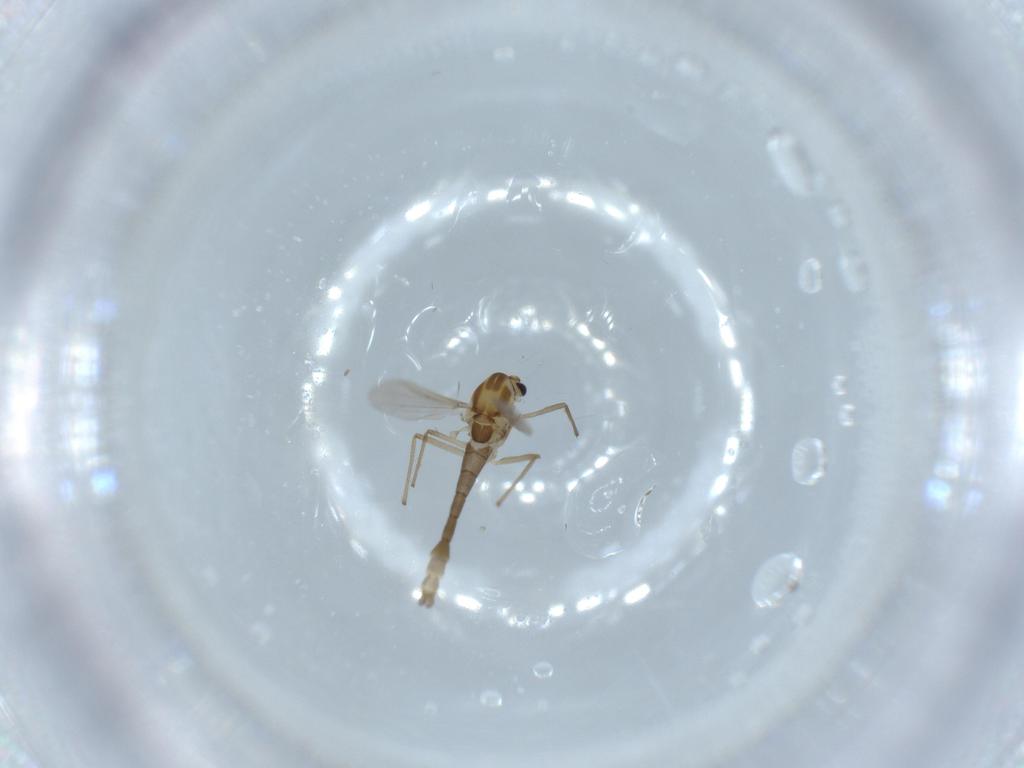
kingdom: Animalia
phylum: Arthropoda
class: Insecta
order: Diptera
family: Chironomidae
